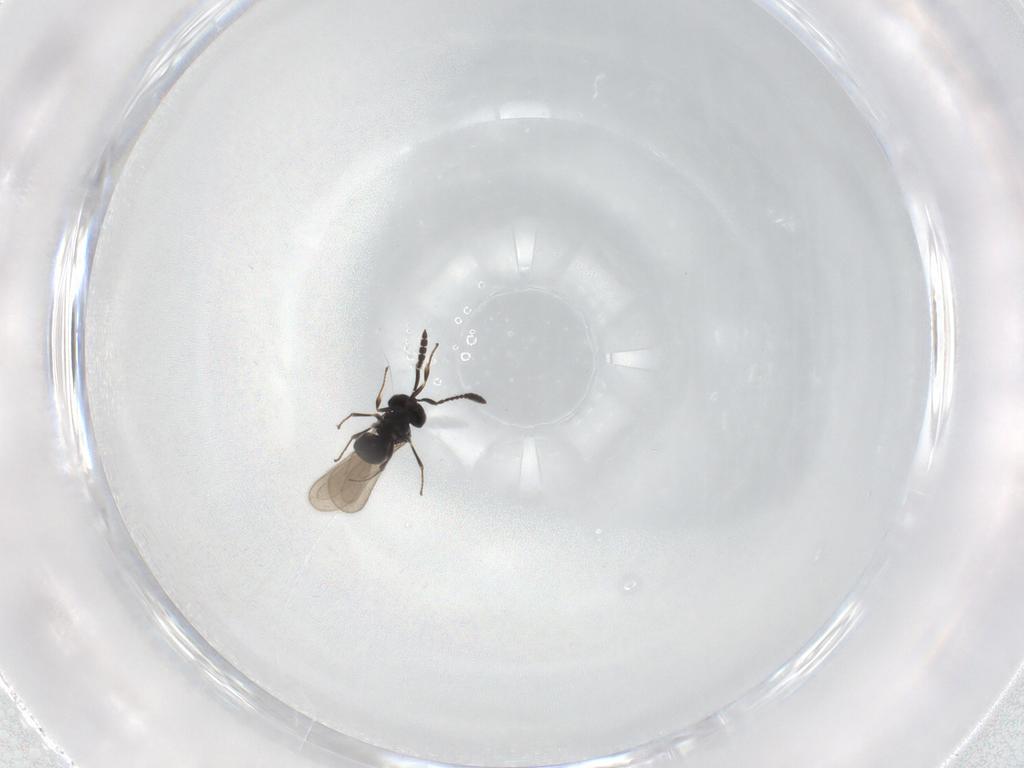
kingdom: Animalia
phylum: Arthropoda
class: Insecta
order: Hymenoptera
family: Scelionidae
